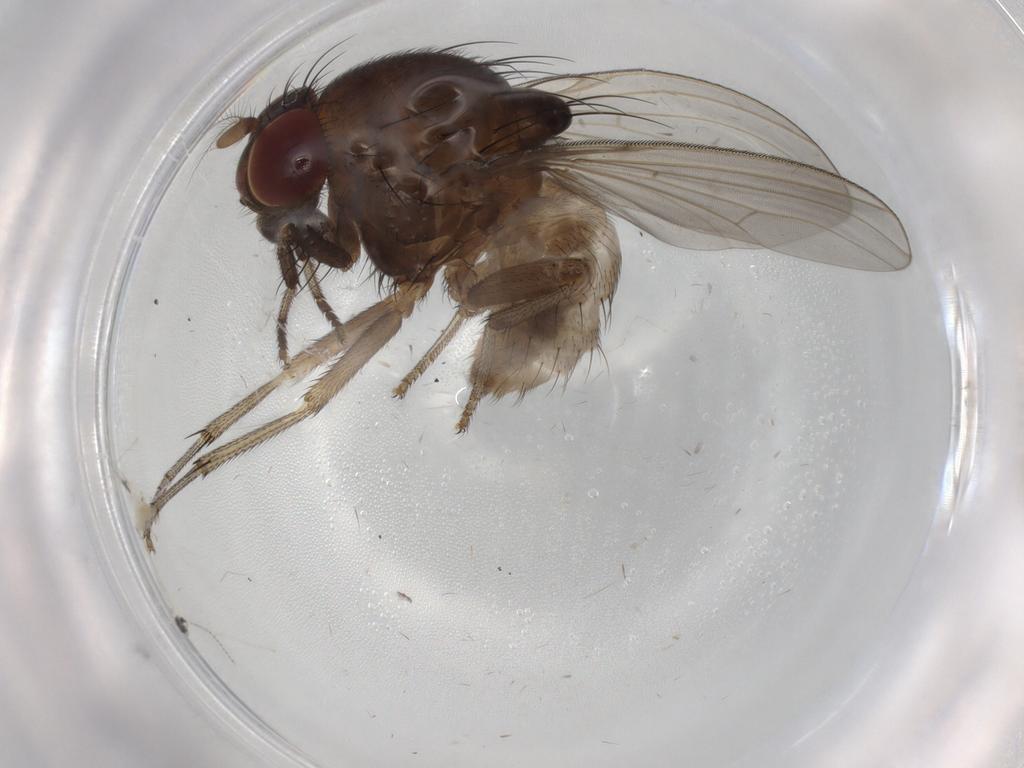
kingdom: Animalia
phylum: Arthropoda
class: Insecta
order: Diptera
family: Cecidomyiidae
